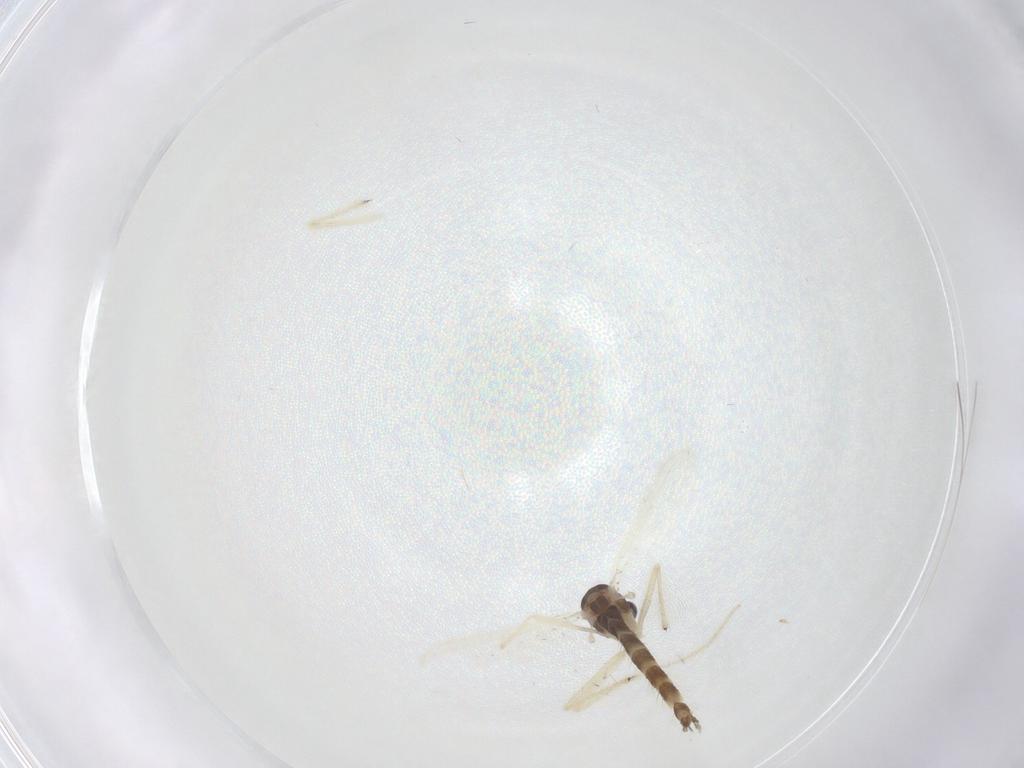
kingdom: Animalia
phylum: Arthropoda
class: Insecta
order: Diptera
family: Chironomidae
